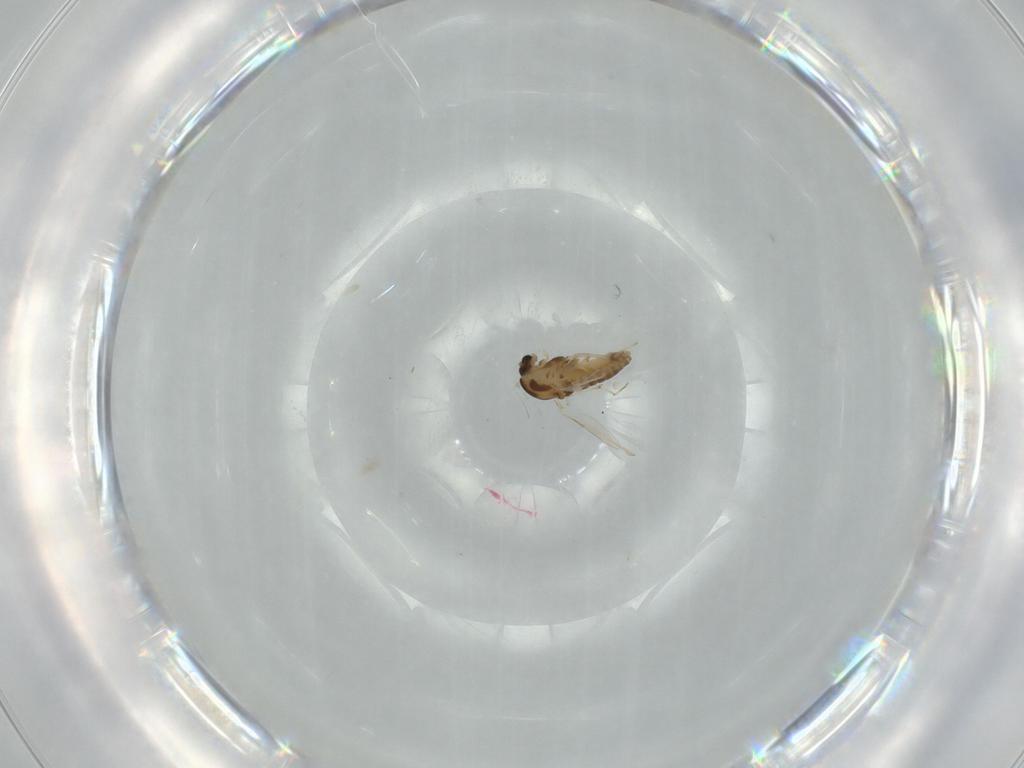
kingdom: Animalia
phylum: Arthropoda
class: Insecta
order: Diptera
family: Chironomidae
